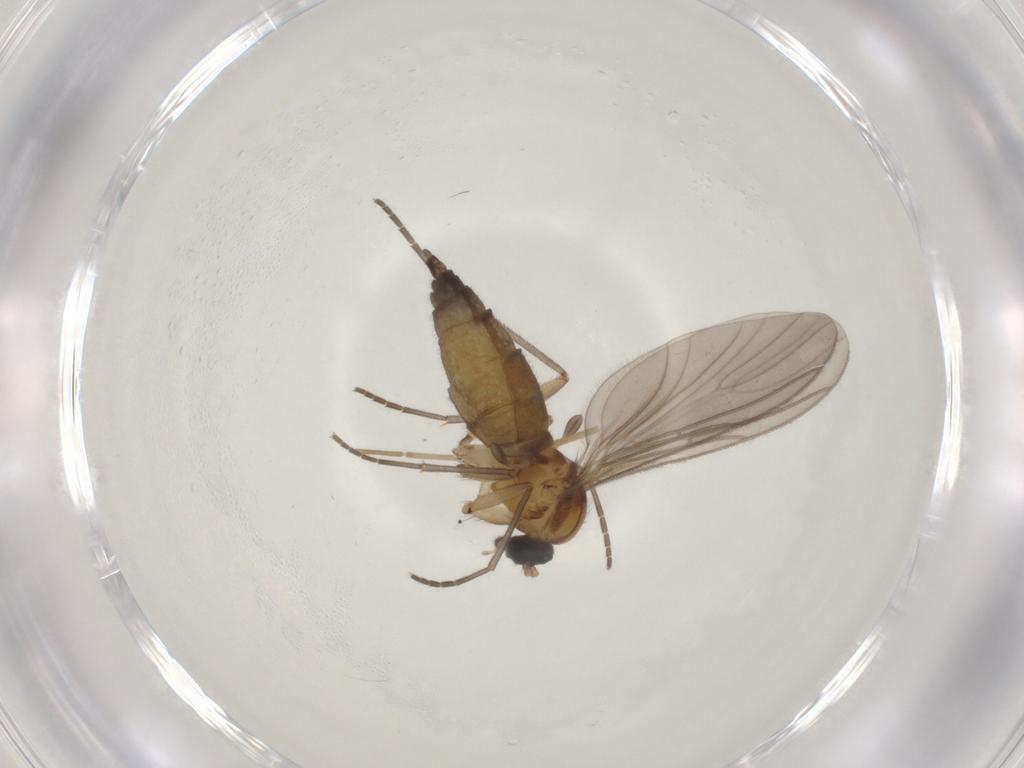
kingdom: Animalia
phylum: Arthropoda
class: Insecta
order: Diptera
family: Sciaridae
